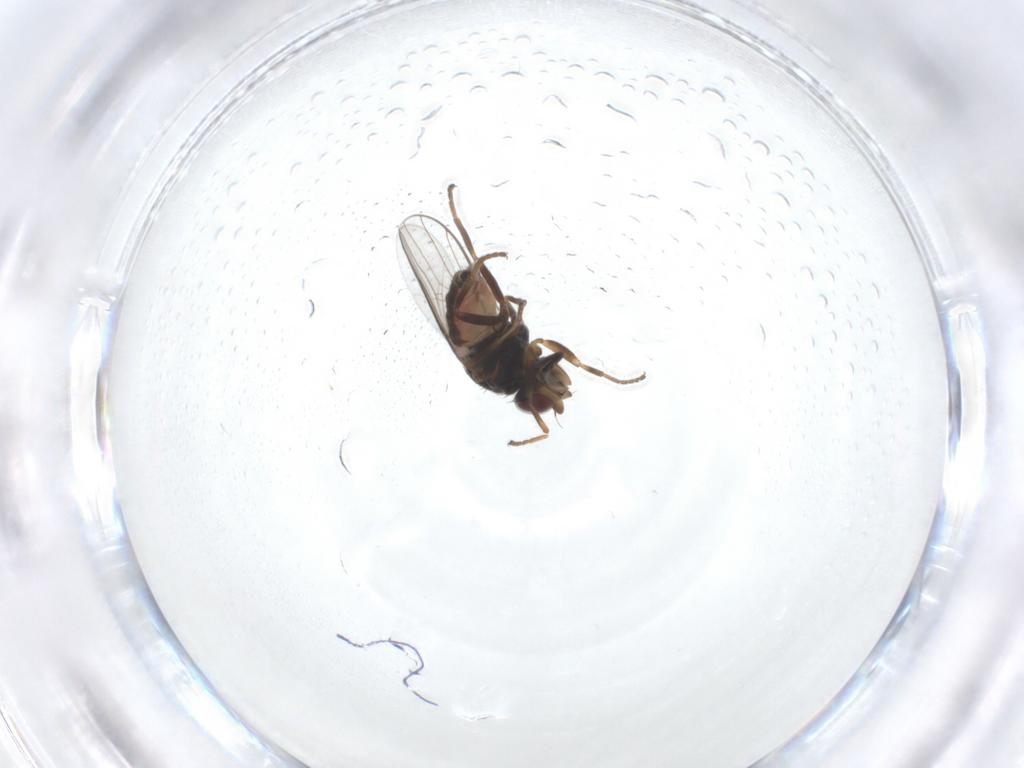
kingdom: Animalia
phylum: Arthropoda
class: Insecta
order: Diptera
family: Chloropidae
